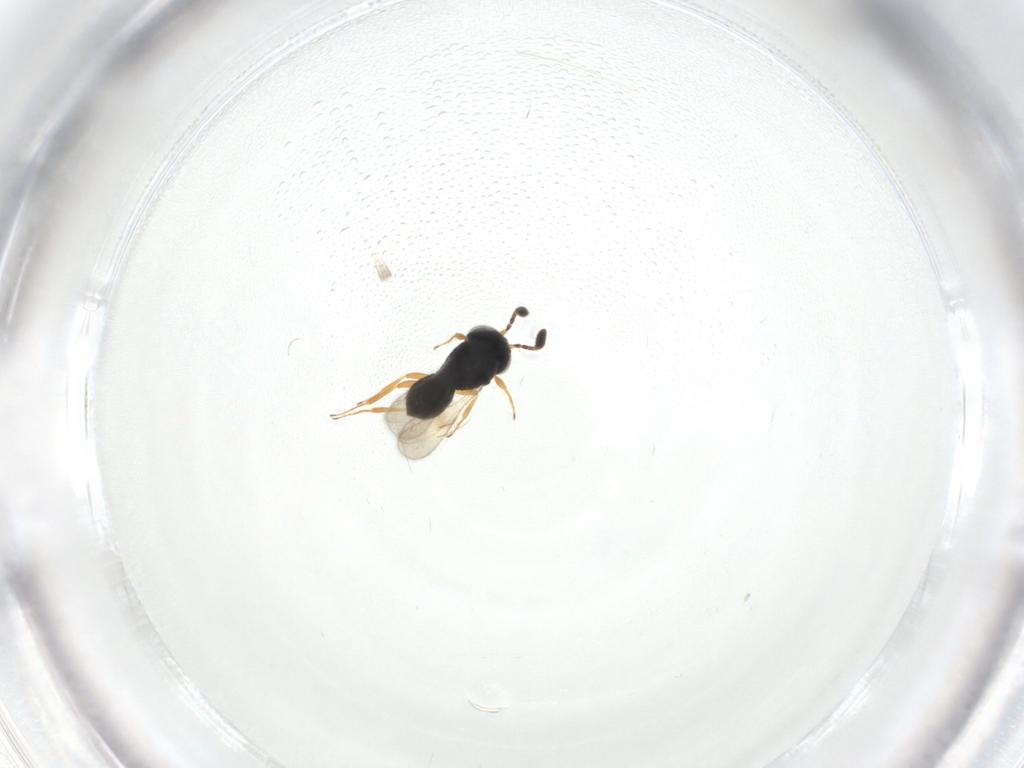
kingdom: Animalia
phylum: Arthropoda
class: Insecta
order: Hymenoptera
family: Scelionidae
